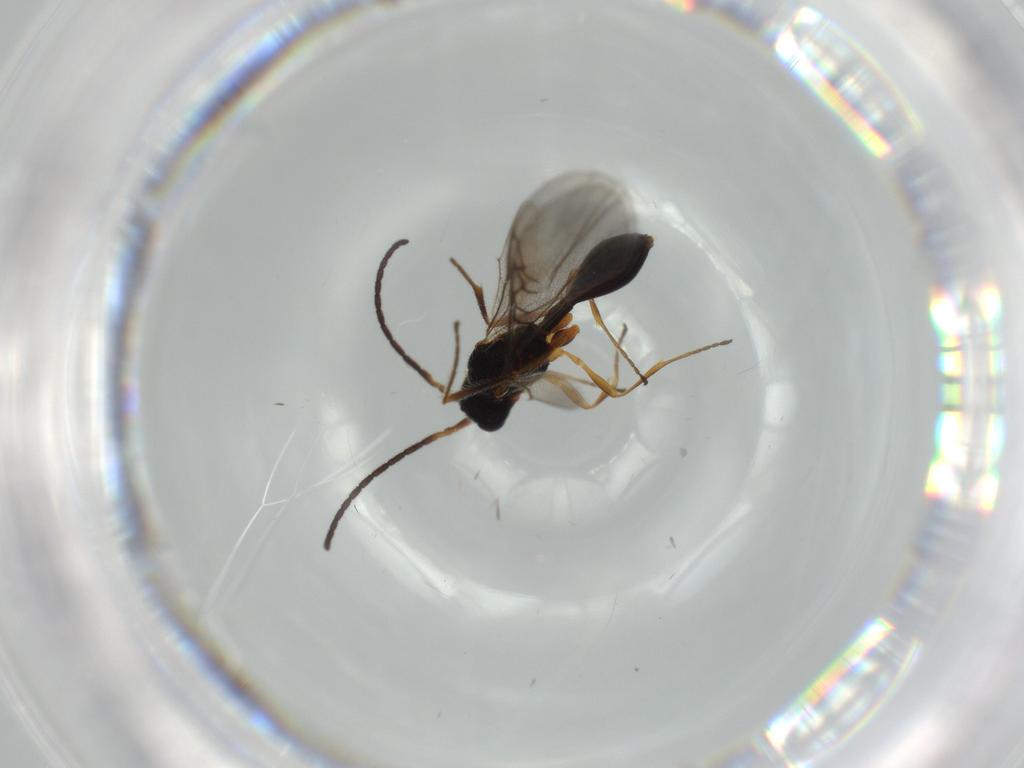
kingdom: Animalia
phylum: Arthropoda
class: Insecta
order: Hymenoptera
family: Diapriidae
